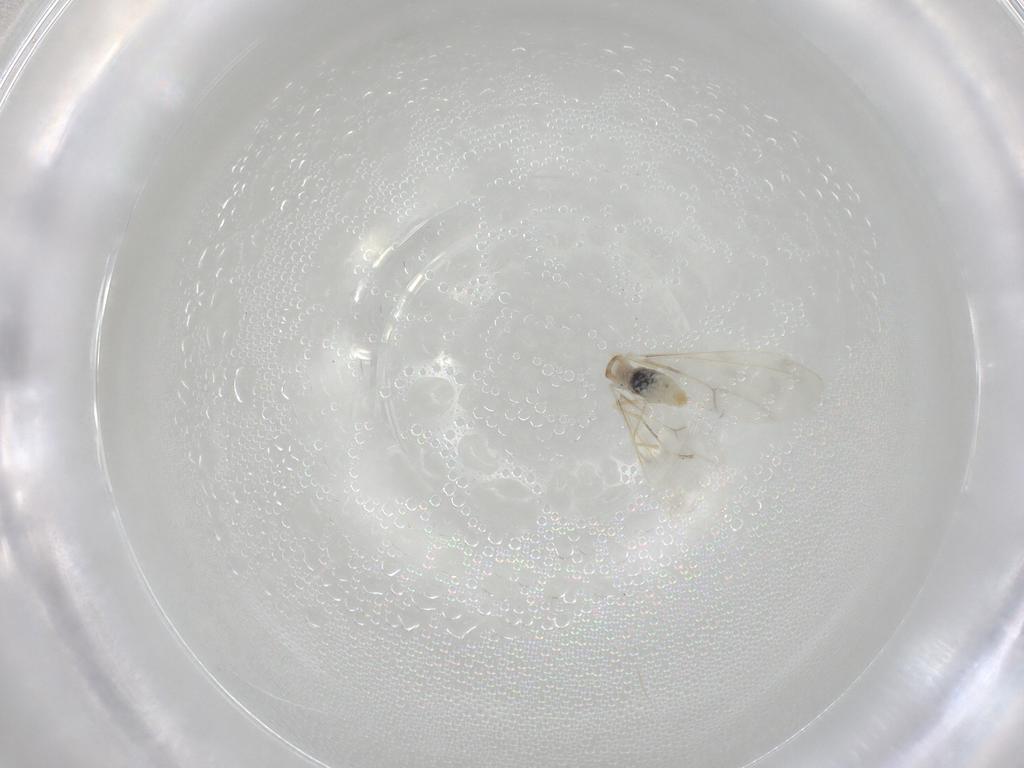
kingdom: Animalia
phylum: Arthropoda
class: Insecta
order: Diptera
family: Cecidomyiidae
